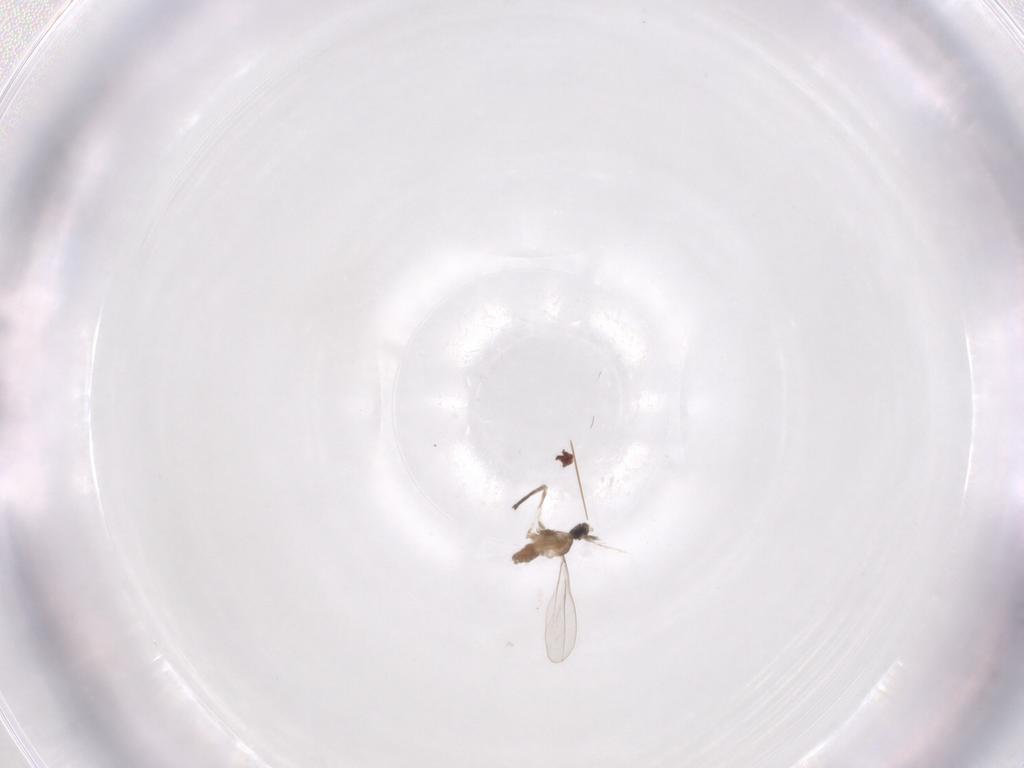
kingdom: Animalia
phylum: Arthropoda
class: Insecta
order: Diptera
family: Drosophilidae
